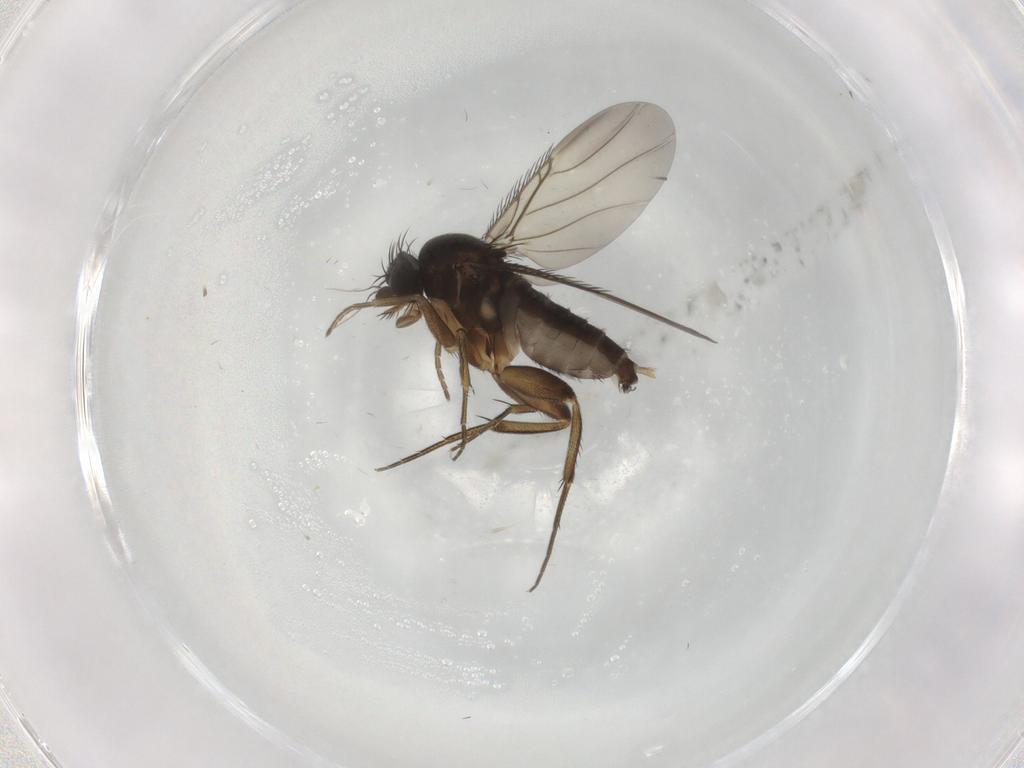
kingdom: Animalia
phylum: Arthropoda
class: Insecta
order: Diptera
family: Phoridae
